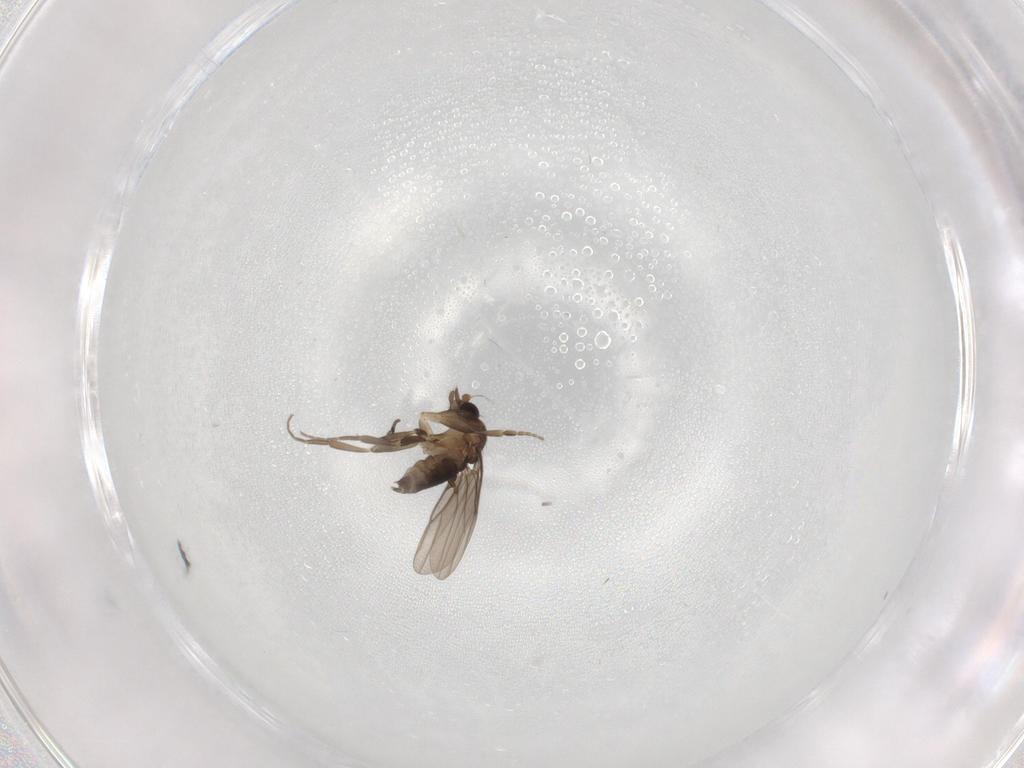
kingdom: Animalia
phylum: Arthropoda
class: Insecta
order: Diptera
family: Phoridae
